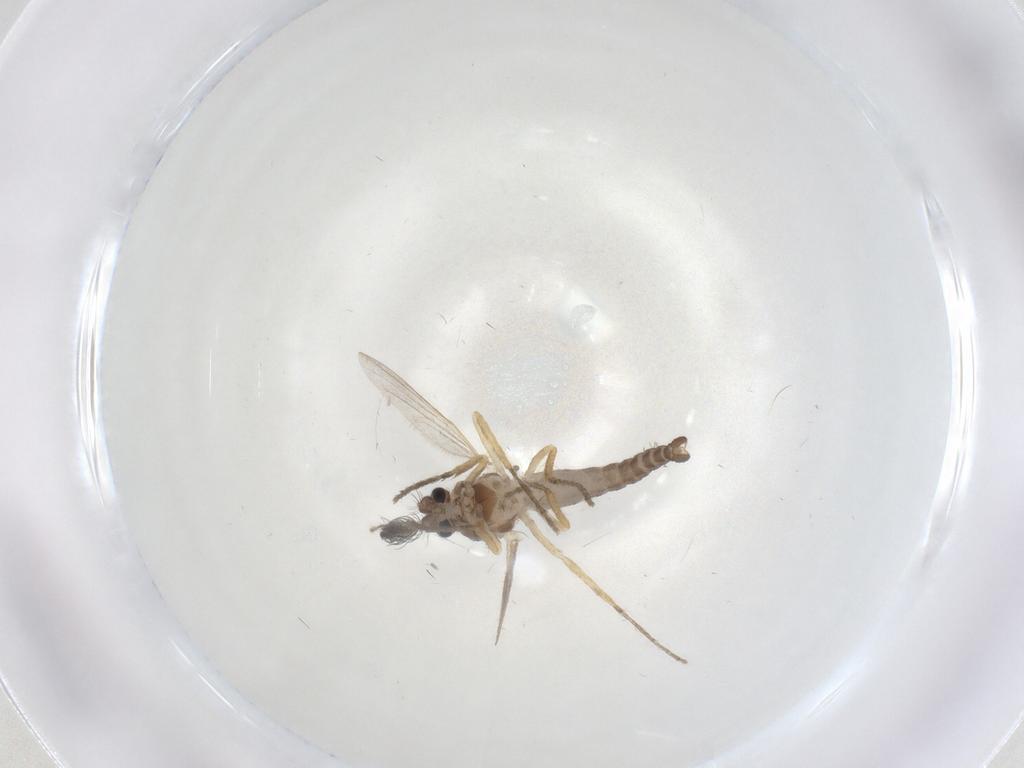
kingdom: Animalia
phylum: Arthropoda
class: Insecta
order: Diptera
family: Ceratopogonidae
